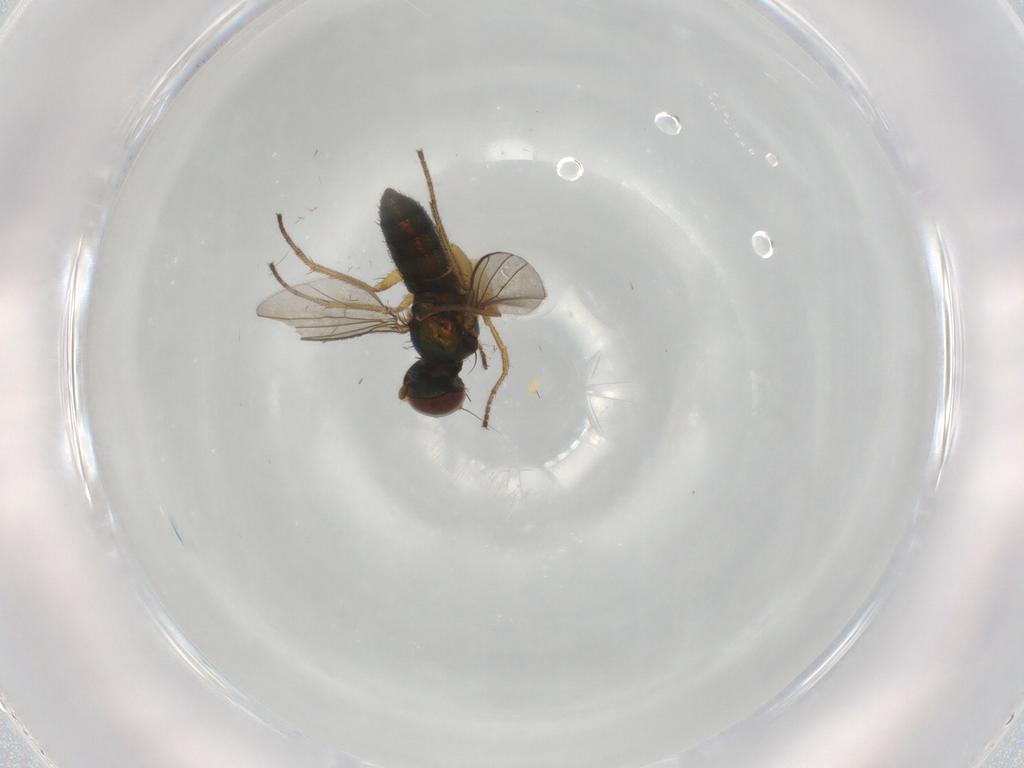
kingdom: Animalia
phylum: Arthropoda
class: Insecta
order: Diptera
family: Dolichopodidae
